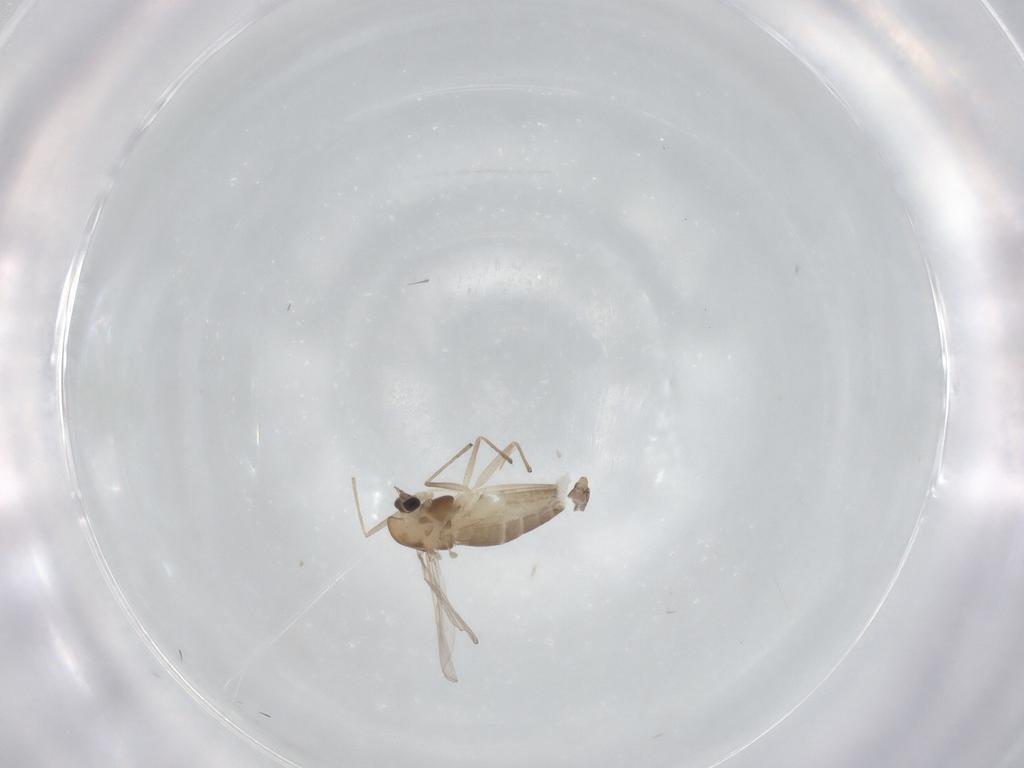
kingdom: Animalia
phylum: Arthropoda
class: Insecta
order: Diptera
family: Chironomidae
